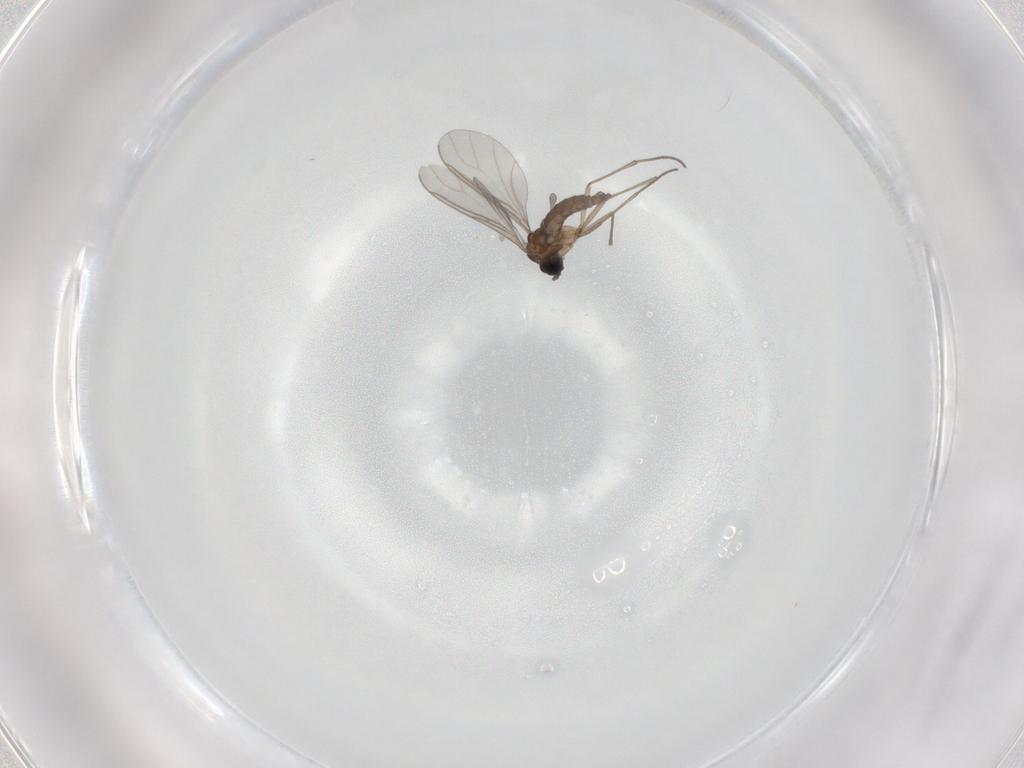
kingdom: Animalia
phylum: Arthropoda
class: Insecta
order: Diptera
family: Sciaridae
